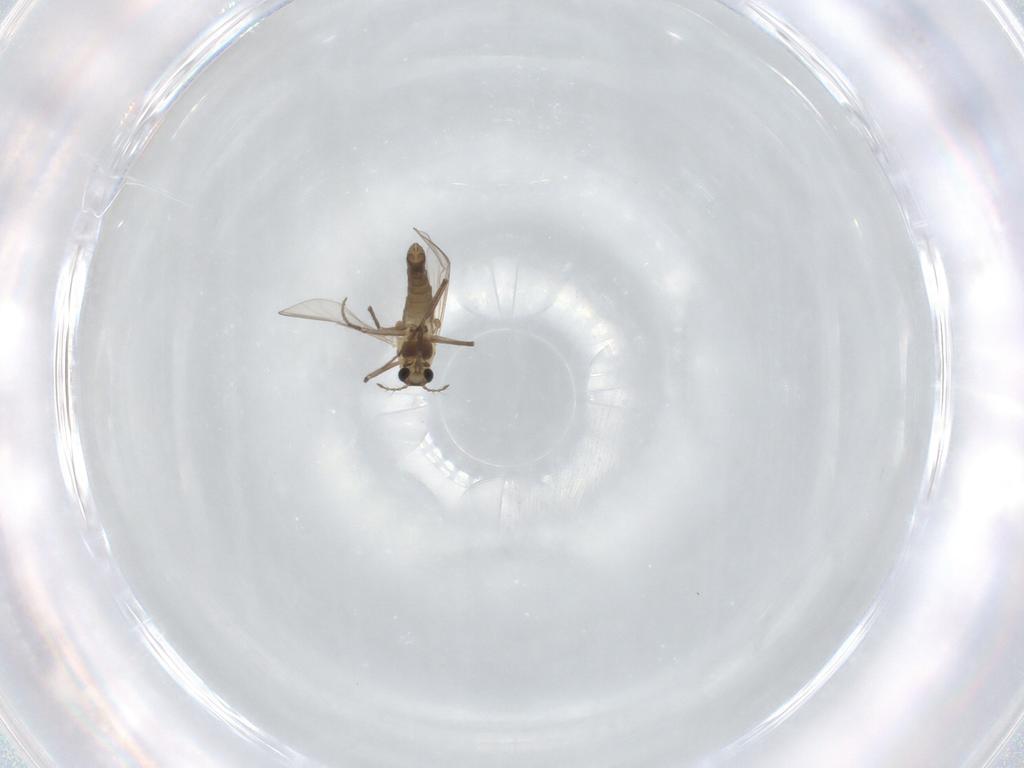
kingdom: Animalia
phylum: Arthropoda
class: Insecta
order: Diptera
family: Chironomidae
